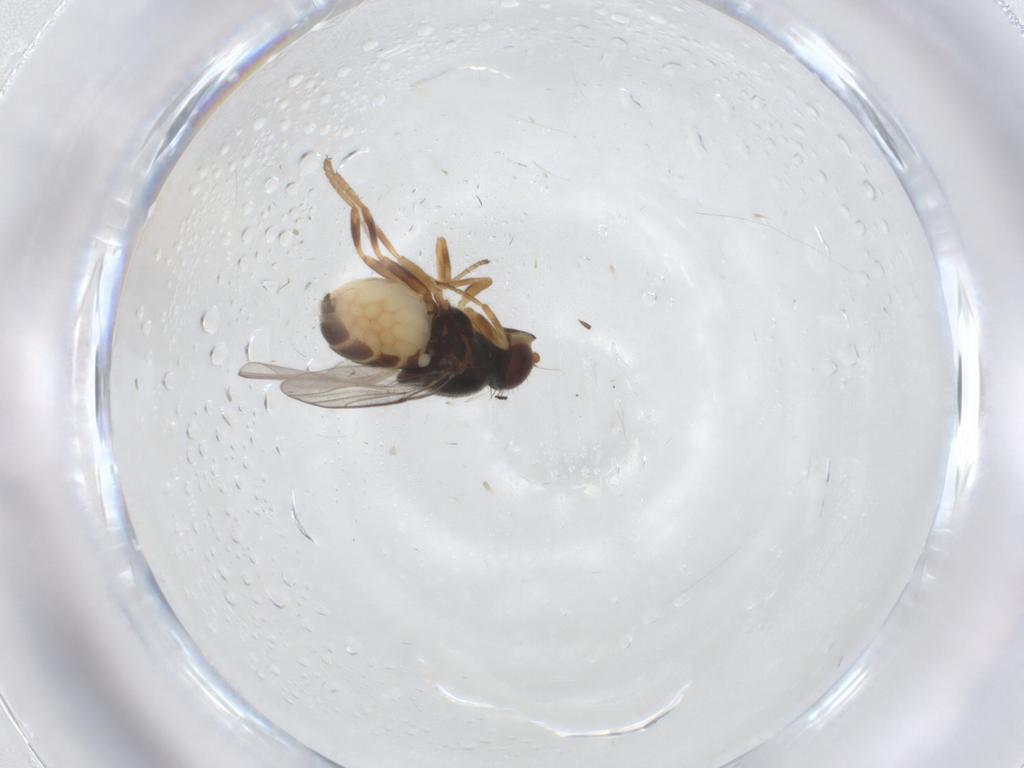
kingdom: Animalia
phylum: Arthropoda
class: Insecta
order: Diptera
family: Chloropidae
